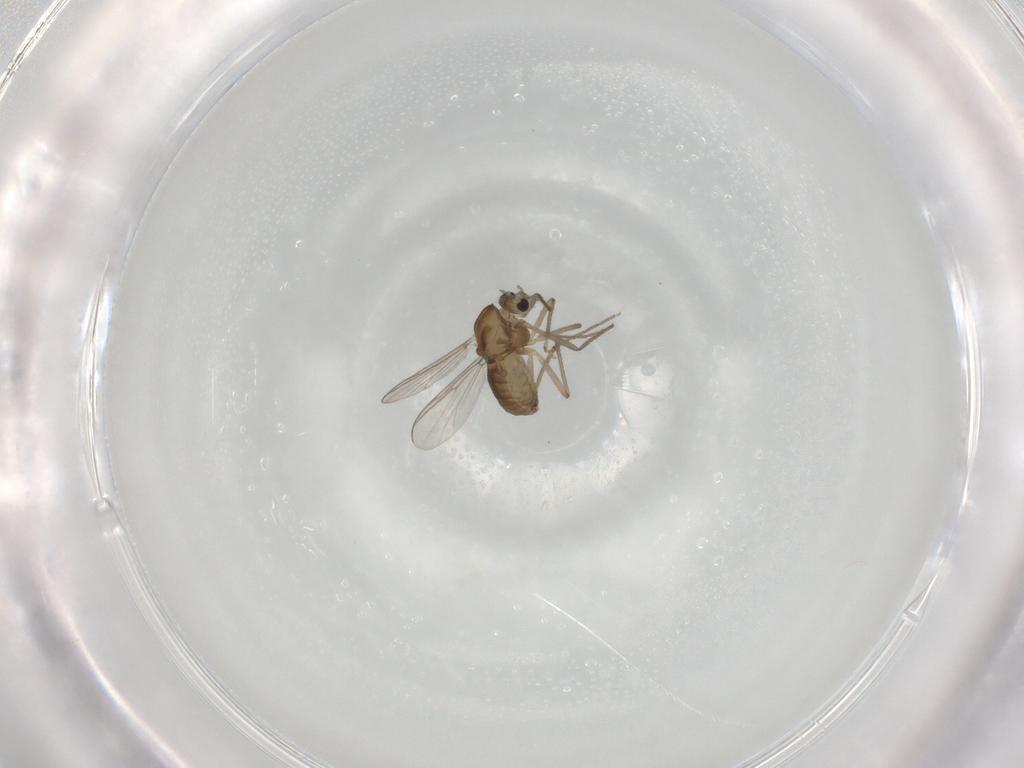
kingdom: Animalia
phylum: Arthropoda
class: Insecta
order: Diptera
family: Chironomidae
